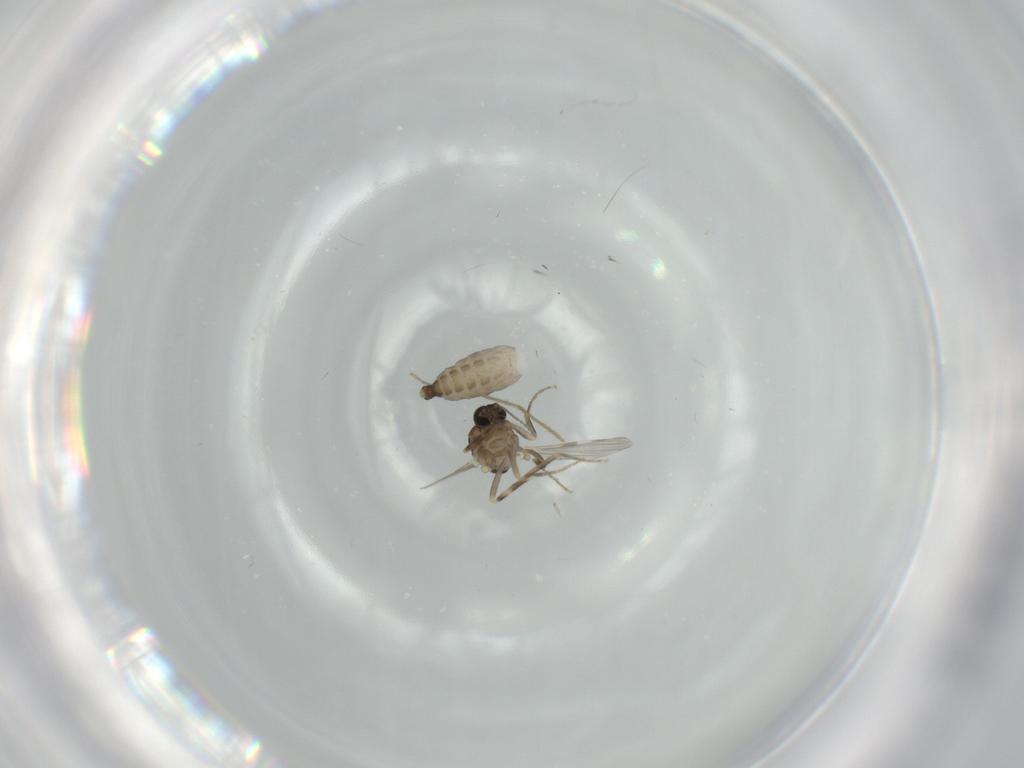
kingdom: Animalia
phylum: Arthropoda
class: Insecta
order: Diptera
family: Ceratopogonidae
